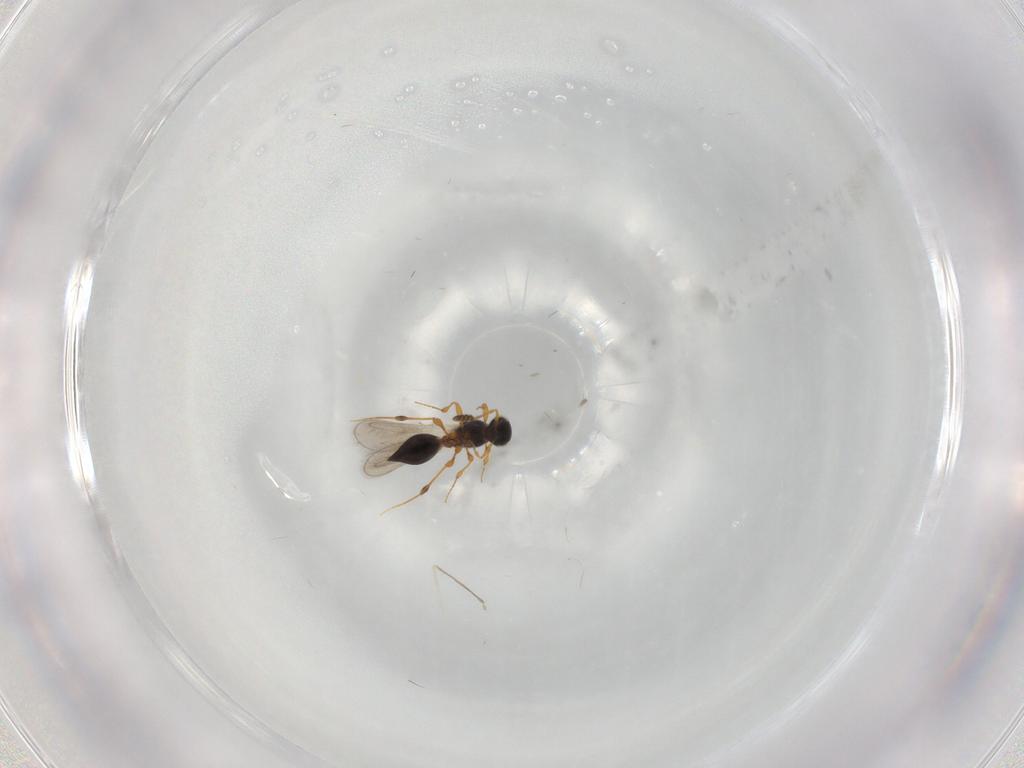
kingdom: Animalia
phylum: Arthropoda
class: Insecta
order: Hymenoptera
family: Platygastridae
